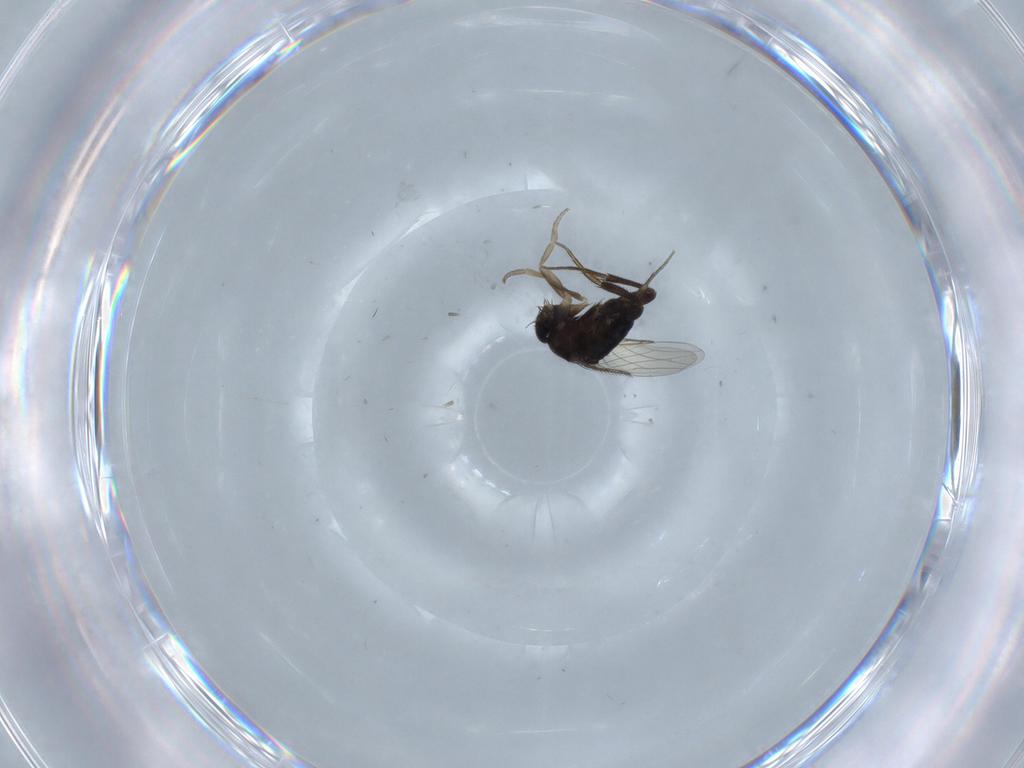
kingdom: Animalia
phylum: Arthropoda
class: Insecta
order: Diptera
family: Phoridae
